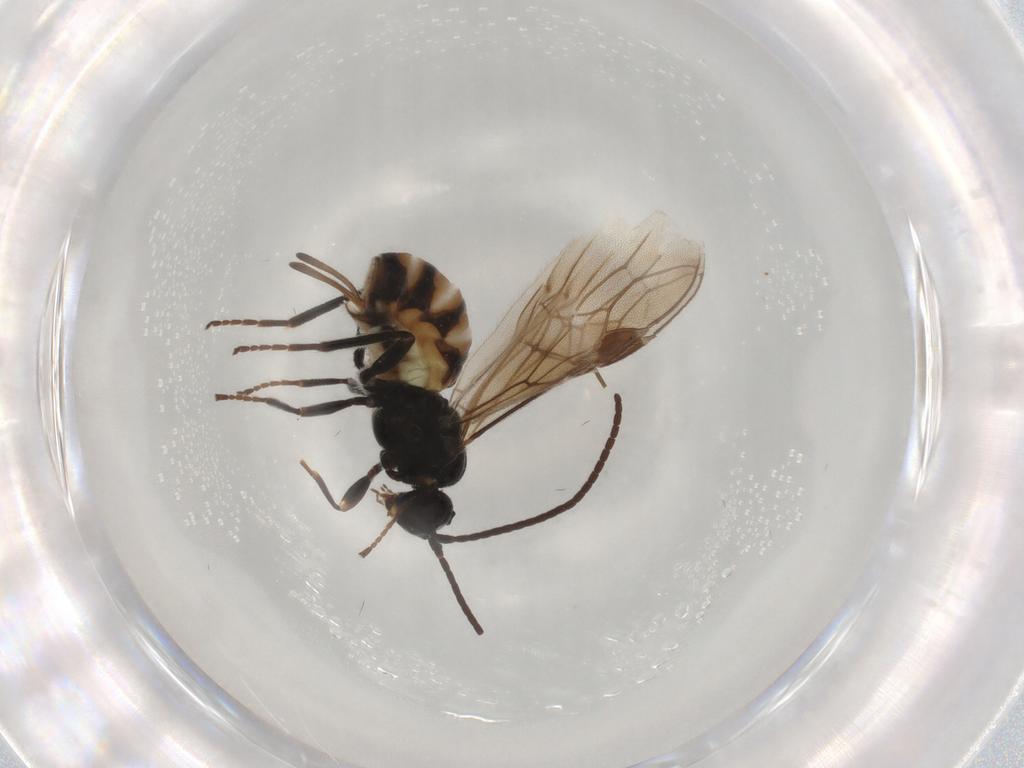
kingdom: Animalia
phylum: Arthropoda
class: Insecta
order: Hymenoptera
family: Braconidae
